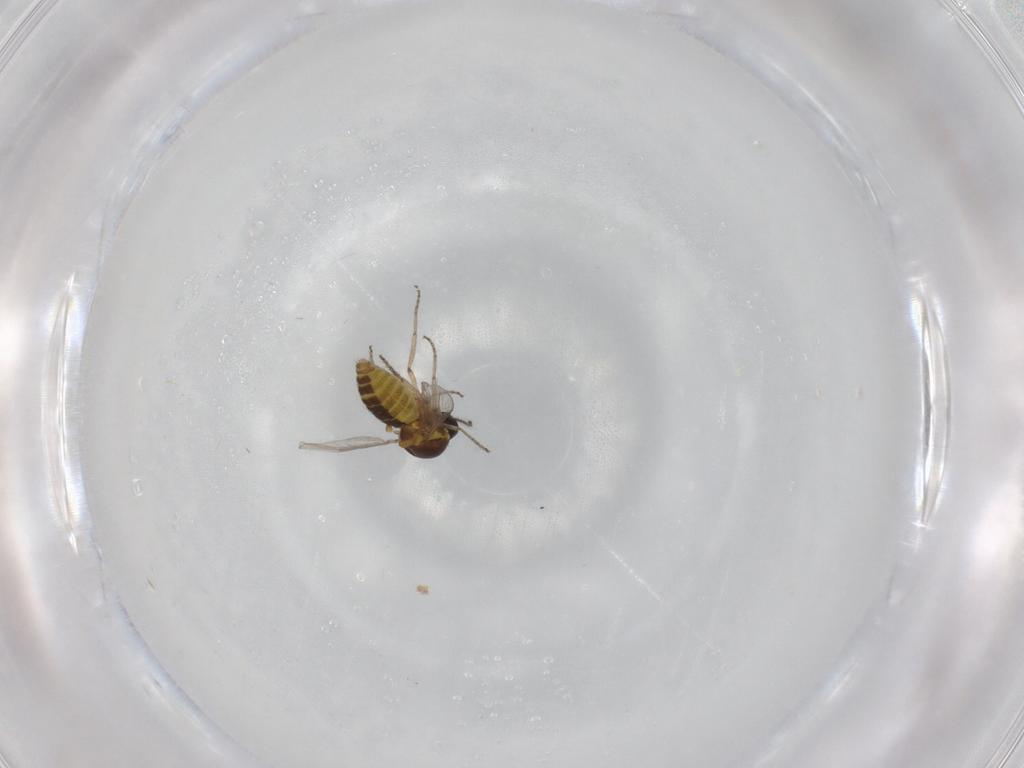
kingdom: Animalia
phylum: Arthropoda
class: Insecta
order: Diptera
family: Ceratopogonidae
